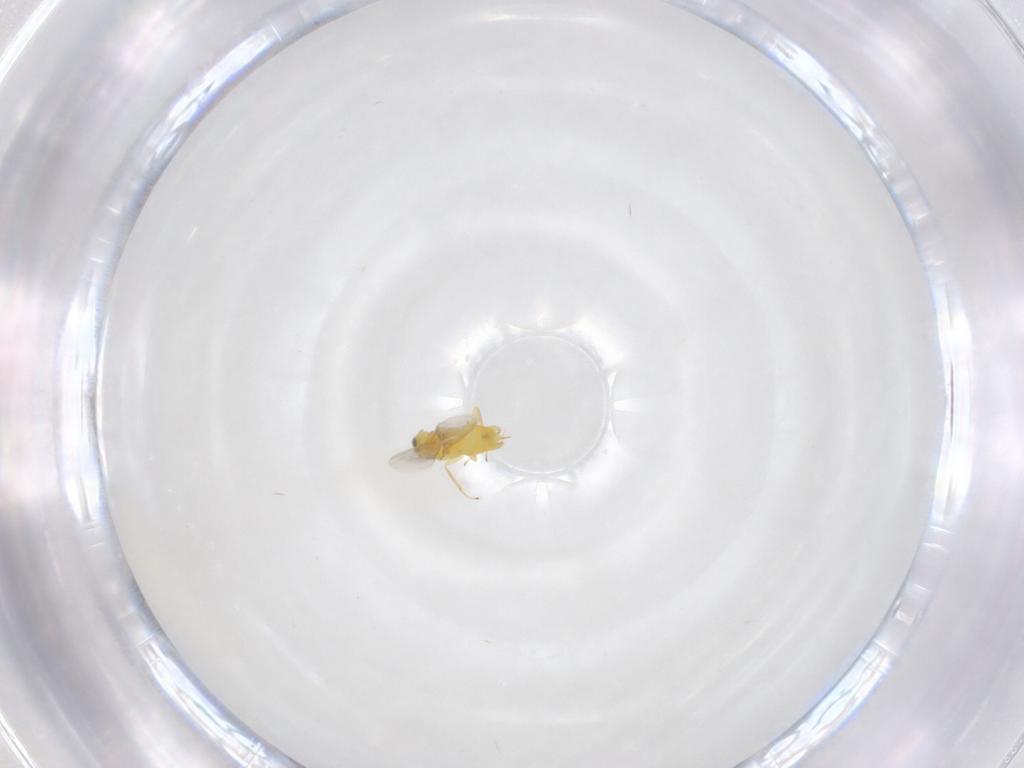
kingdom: Animalia
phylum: Arthropoda
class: Insecta
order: Hymenoptera
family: Aphelinidae
